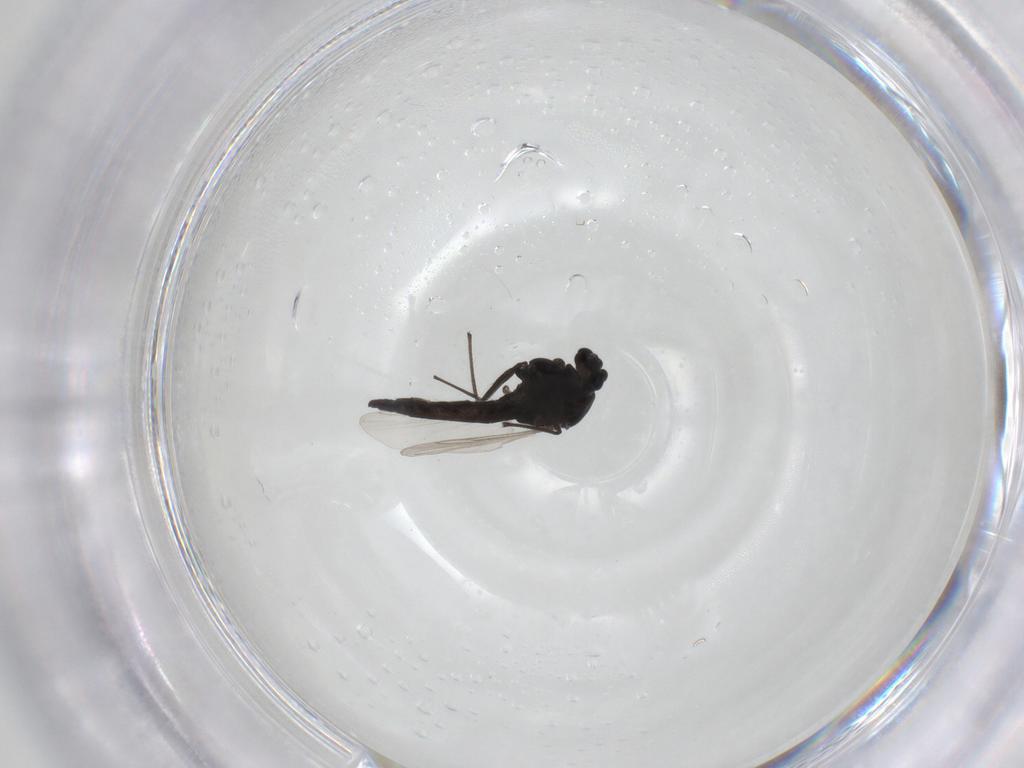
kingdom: Animalia
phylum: Arthropoda
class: Insecta
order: Diptera
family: Chironomidae
